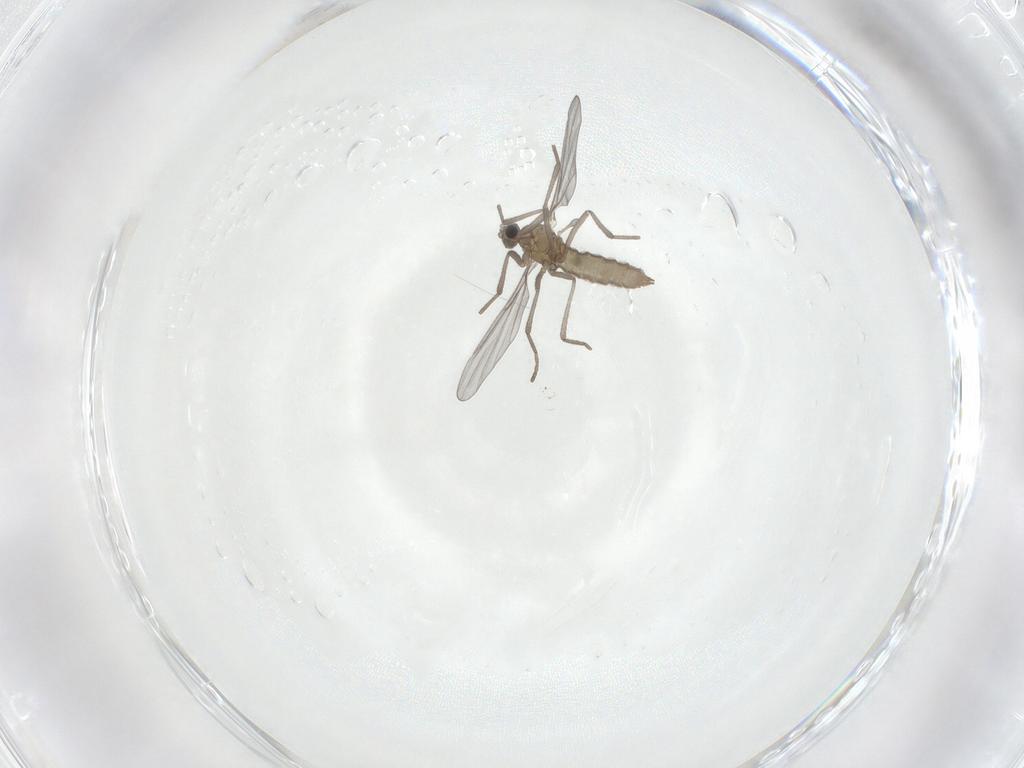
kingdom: Animalia
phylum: Arthropoda
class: Insecta
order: Diptera
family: Cecidomyiidae
